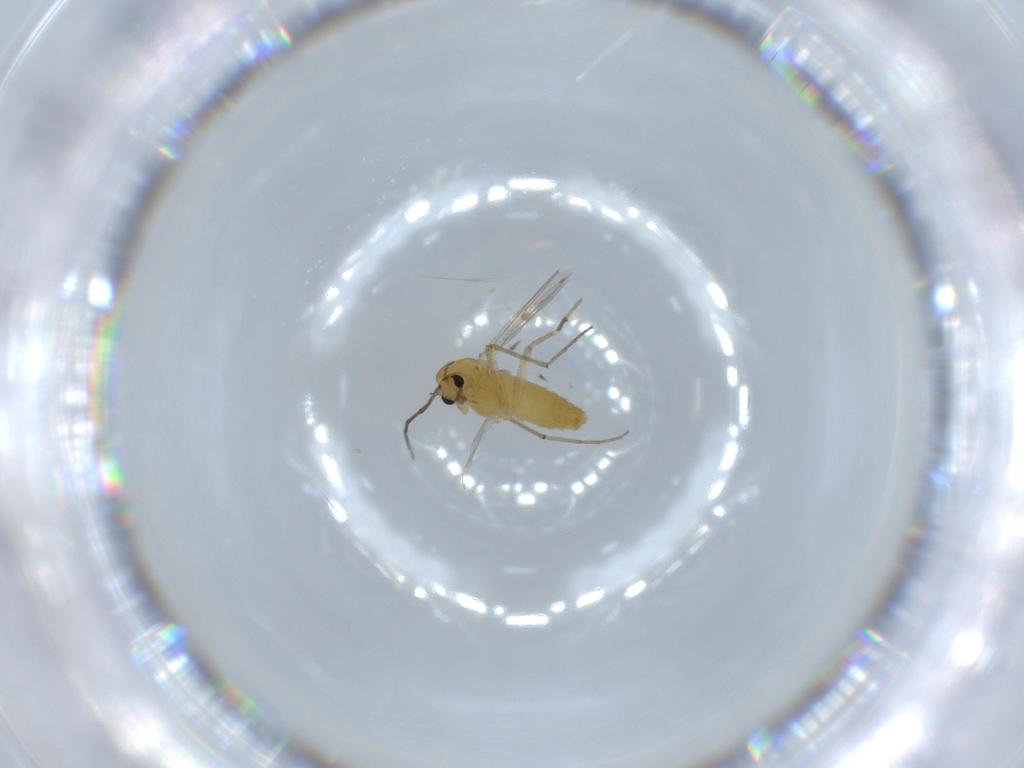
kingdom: Animalia
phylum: Arthropoda
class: Insecta
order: Diptera
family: Chironomidae
